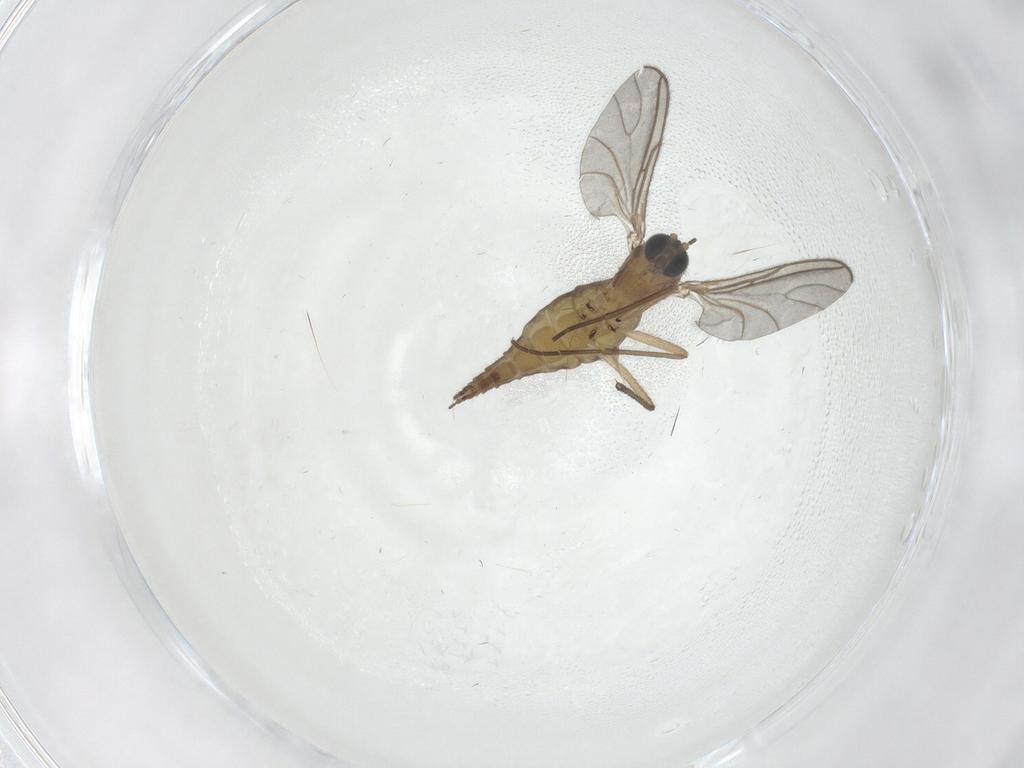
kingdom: Animalia
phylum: Arthropoda
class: Insecta
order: Diptera
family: Sciaridae
